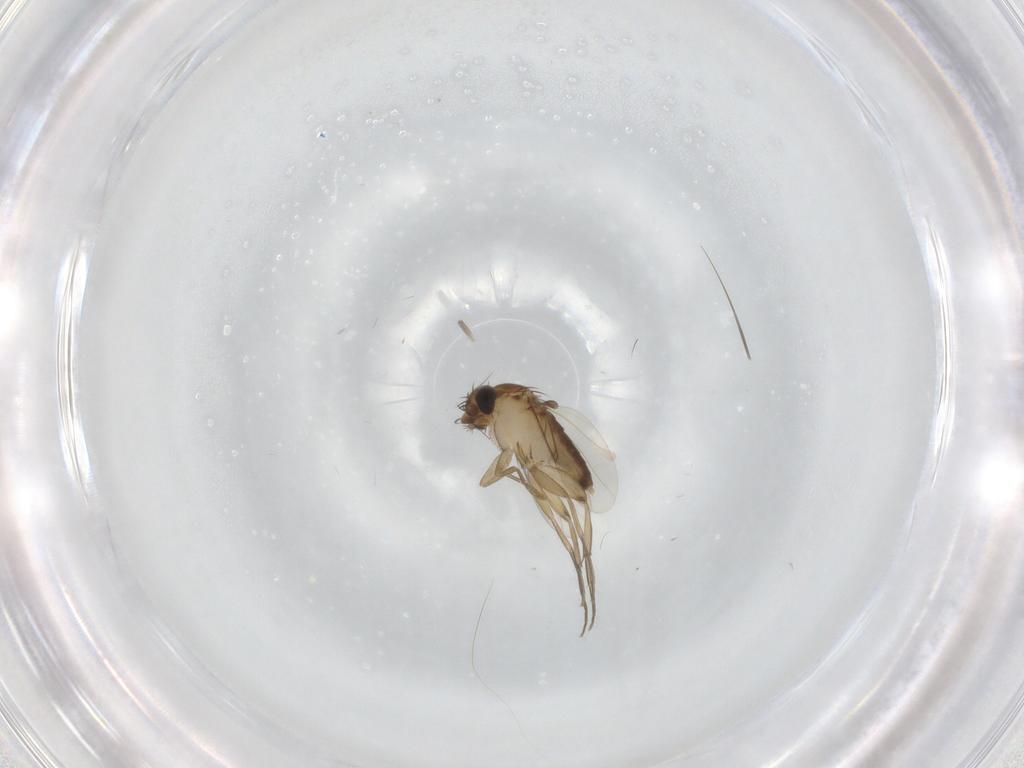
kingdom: Animalia
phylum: Arthropoda
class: Insecta
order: Diptera
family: Phoridae
